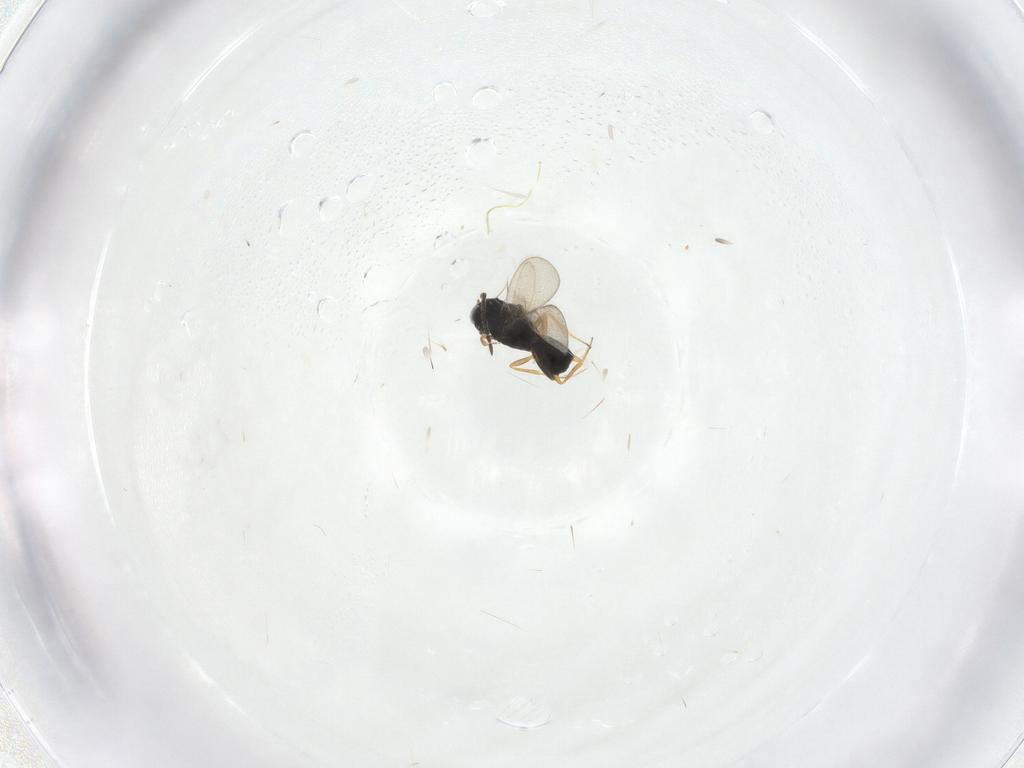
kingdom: Animalia
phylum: Arthropoda
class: Insecta
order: Hymenoptera
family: Scelionidae
